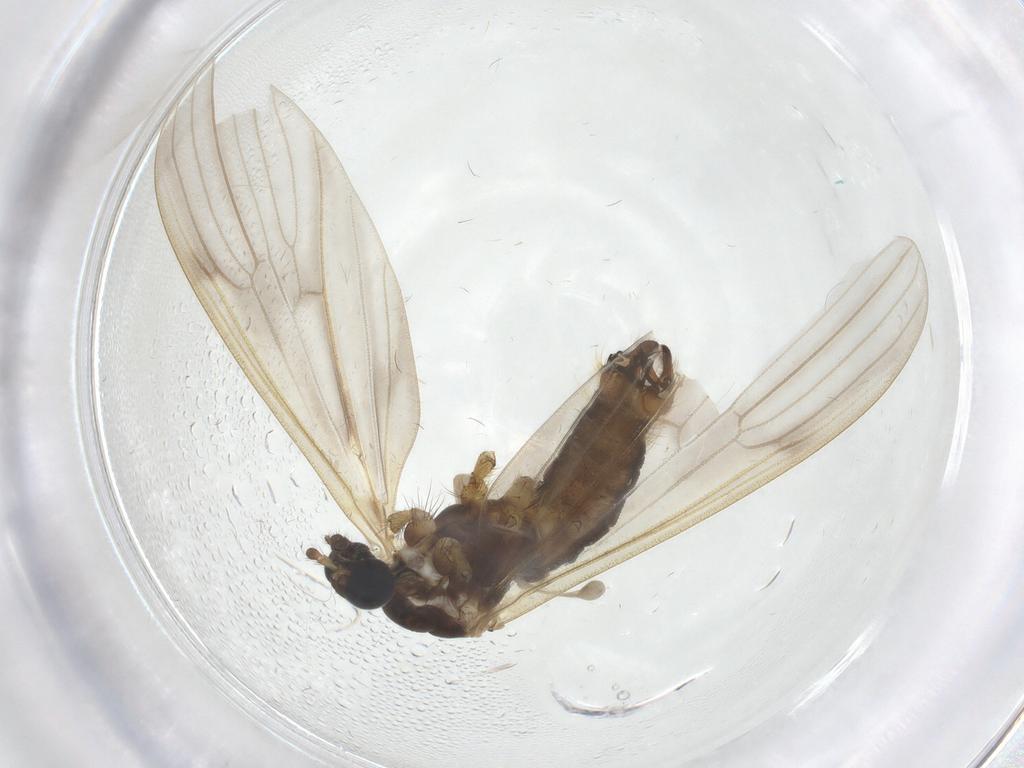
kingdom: Animalia
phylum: Arthropoda
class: Insecta
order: Diptera
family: Sciaridae
